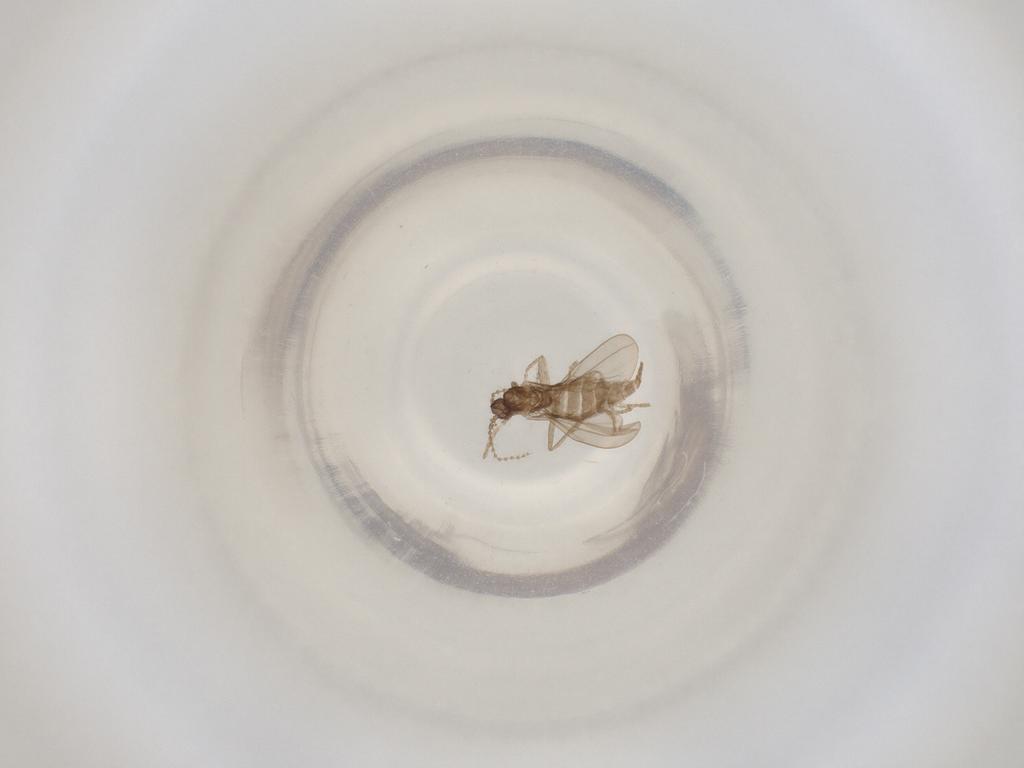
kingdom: Animalia
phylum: Arthropoda
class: Insecta
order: Diptera
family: Cecidomyiidae
